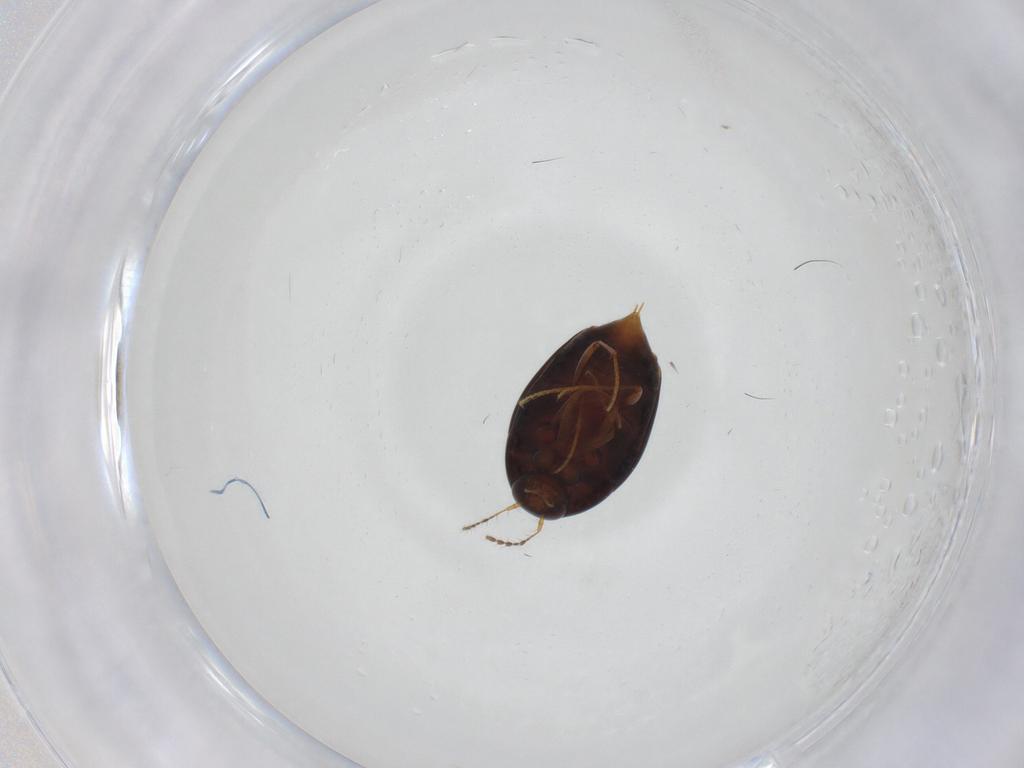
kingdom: Animalia
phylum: Arthropoda
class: Insecta
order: Coleoptera
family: Staphylinidae
